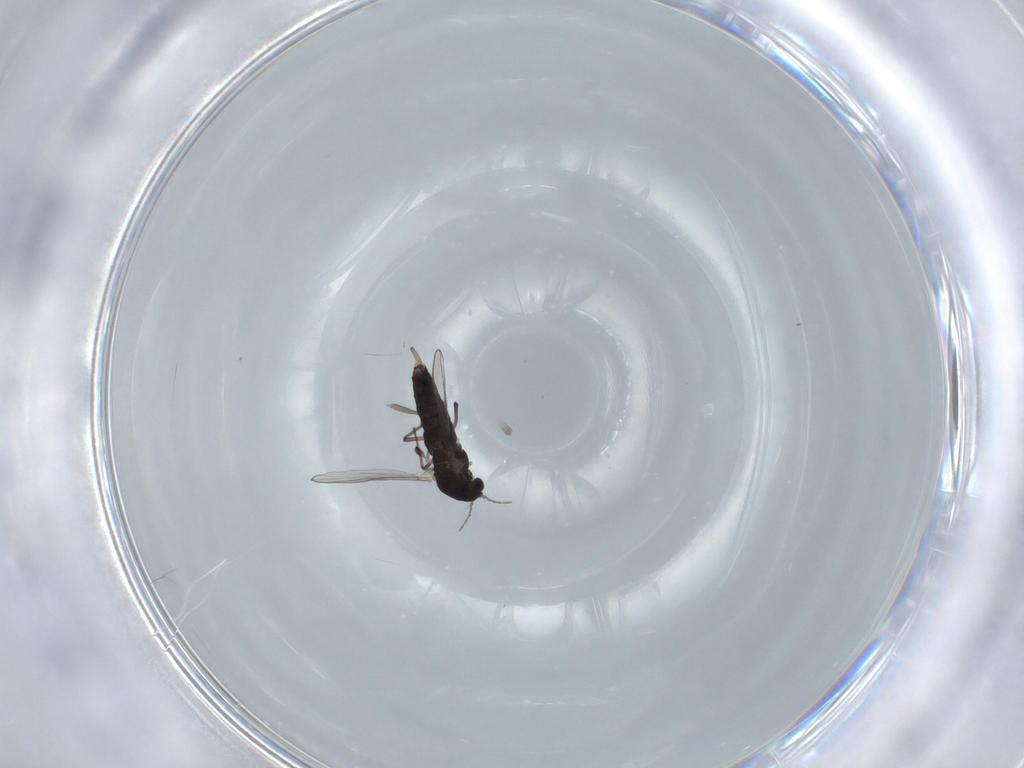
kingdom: Animalia
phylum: Arthropoda
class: Insecta
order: Diptera
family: Chironomidae
